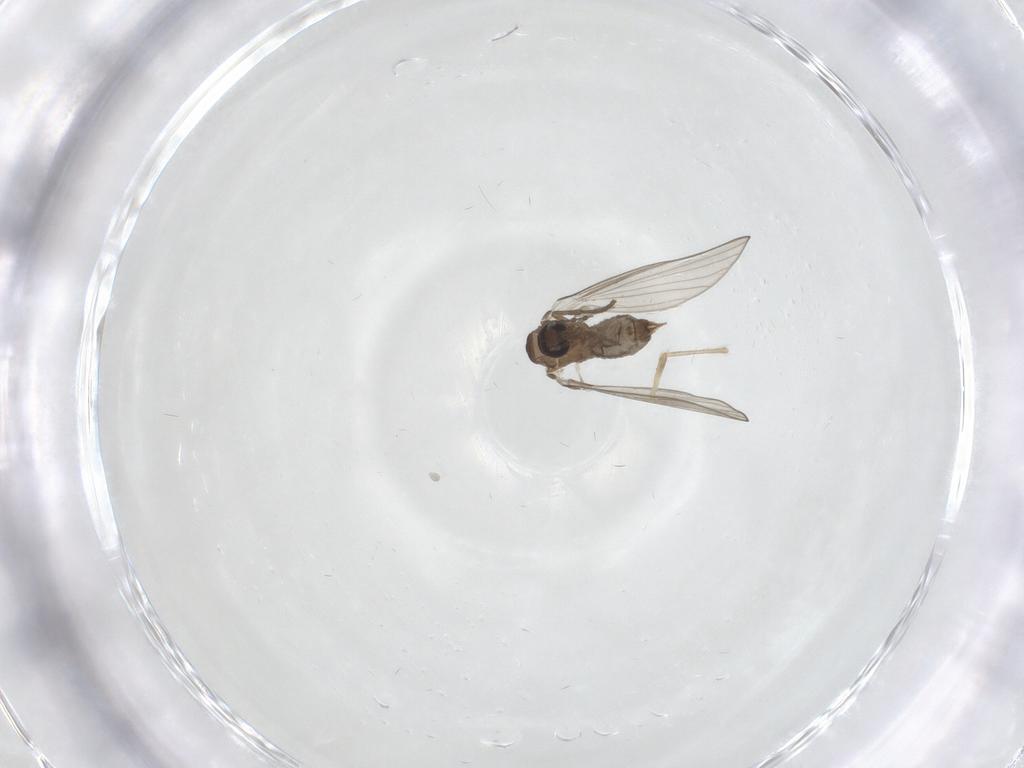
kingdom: Animalia
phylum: Arthropoda
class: Insecta
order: Diptera
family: Chironomidae
